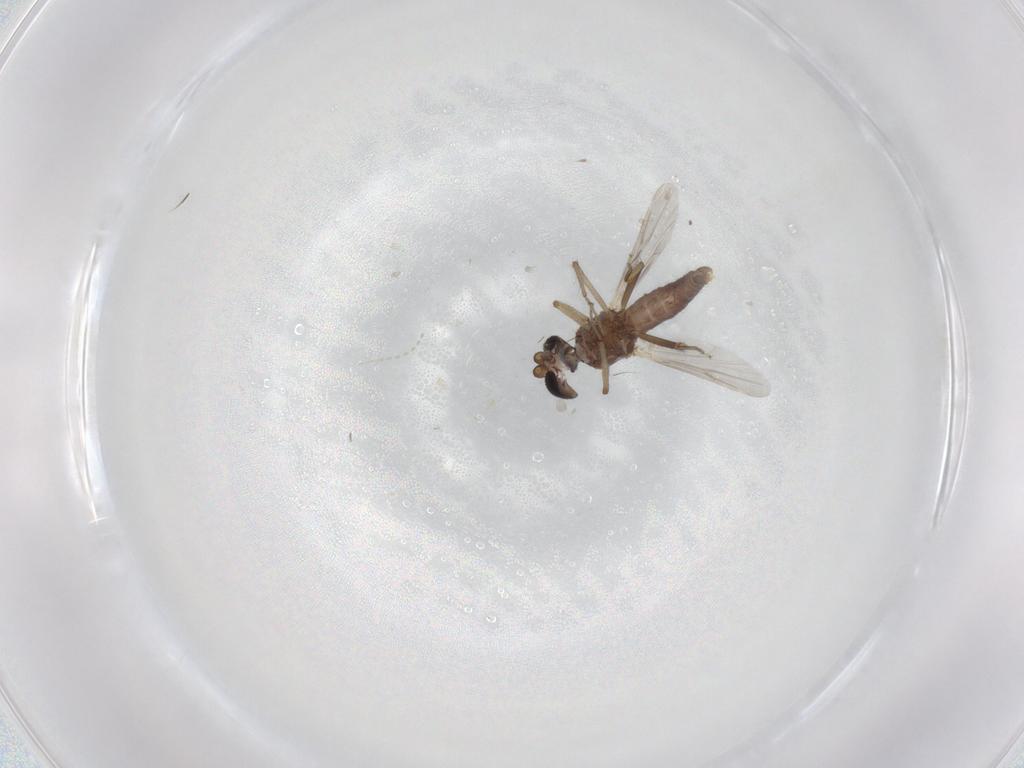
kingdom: Animalia
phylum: Arthropoda
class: Insecta
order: Diptera
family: Ceratopogonidae
